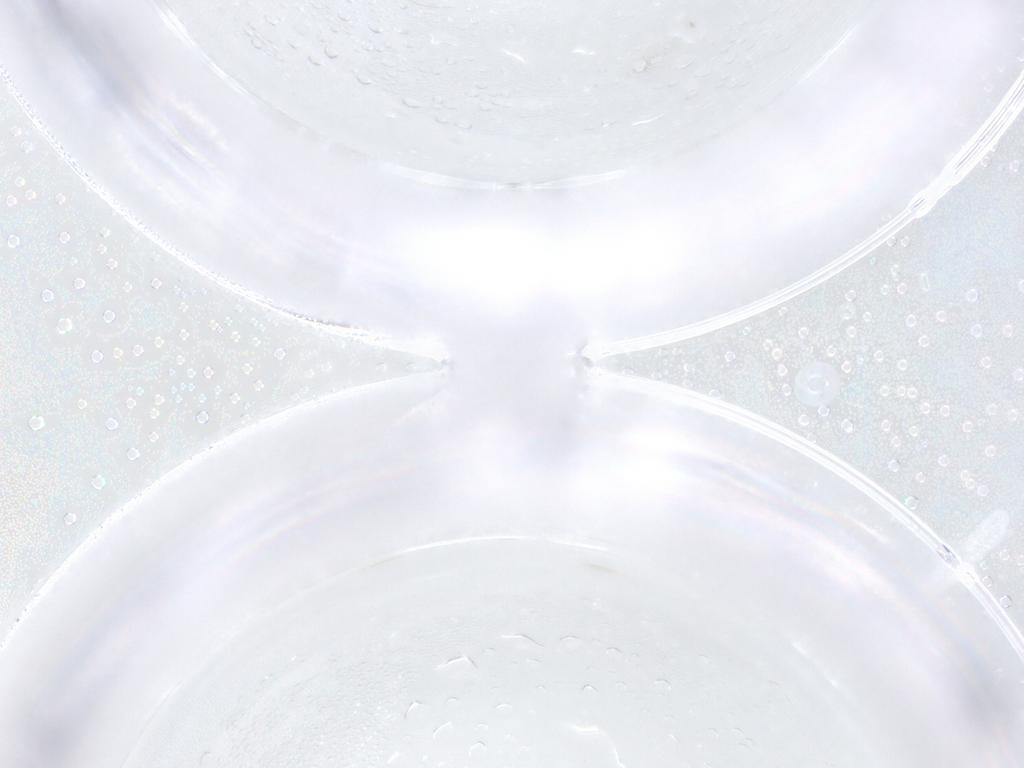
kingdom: Animalia
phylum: Arthropoda
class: Insecta
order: Diptera
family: Sciaridae
